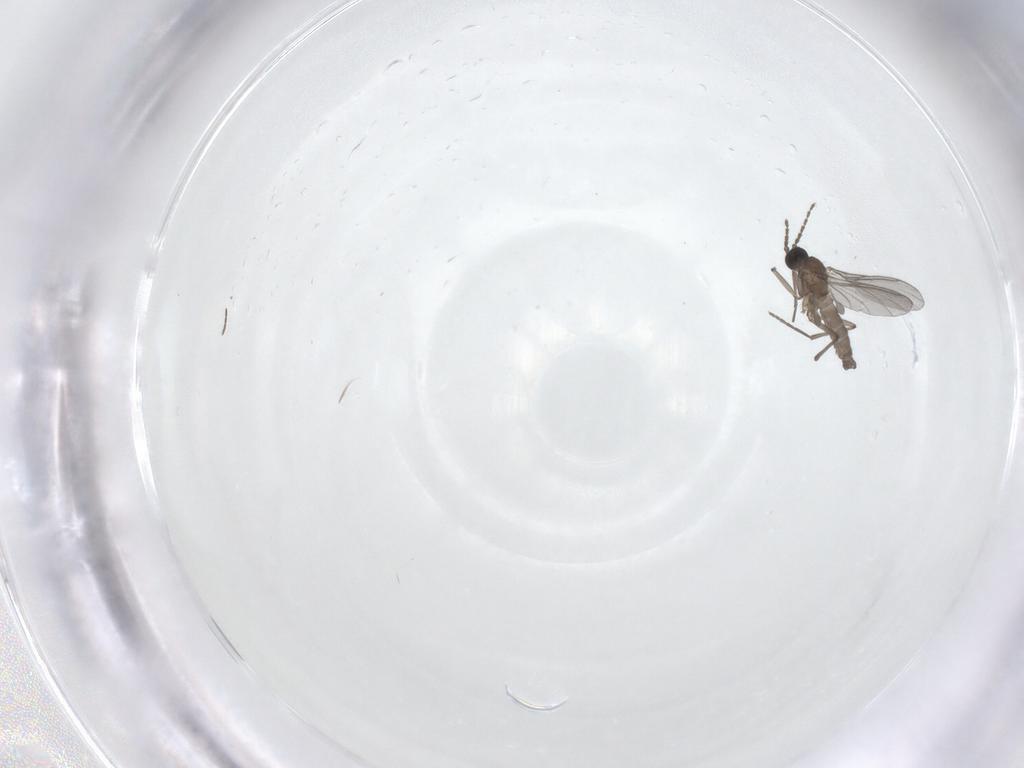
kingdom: Animalia
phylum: Arthropoda
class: Insecta
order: Diptera
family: Sciaridae
